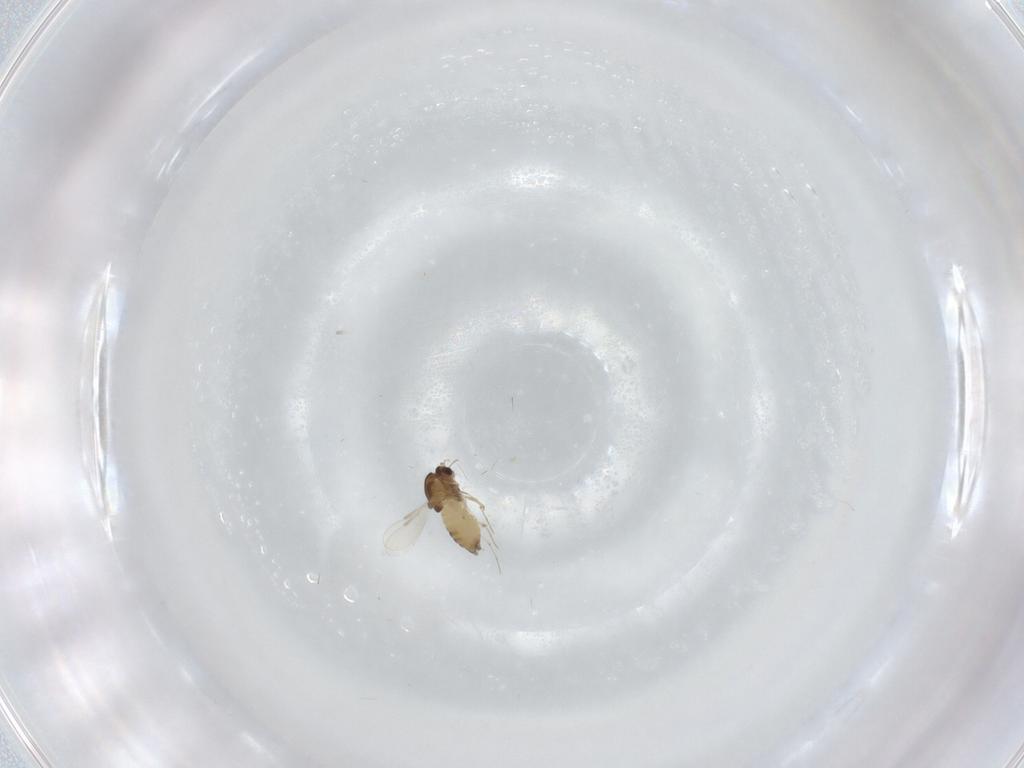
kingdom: Animalia
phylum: Arthropoda
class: Insecta
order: Diptera
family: Chironomidae
